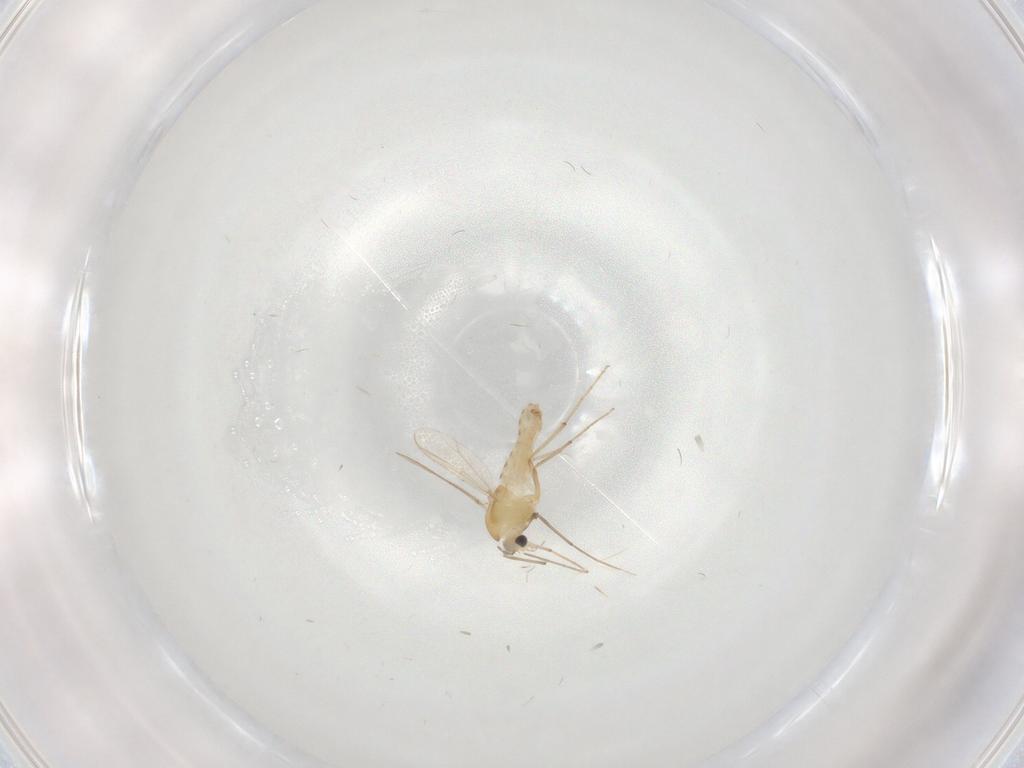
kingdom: Animalia
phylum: Arthropoda
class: Insecta
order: Diptera
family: Chironomidae
